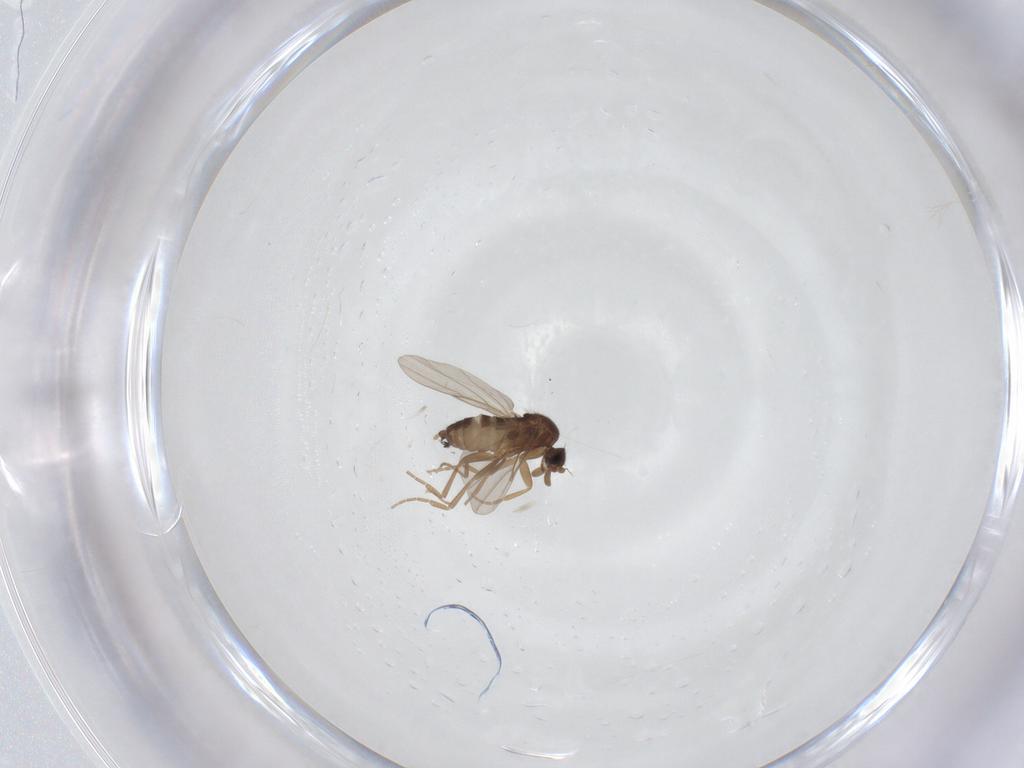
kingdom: Animalia
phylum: Arthropoda
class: Insecta
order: Diptera
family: Phoridae
